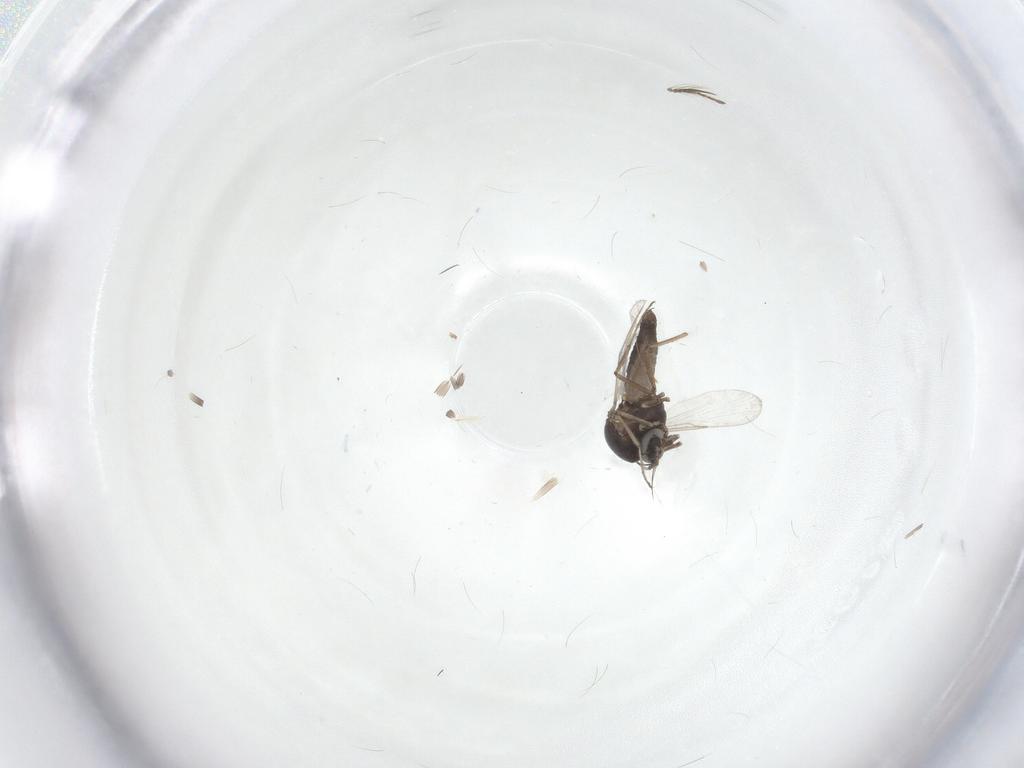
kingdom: Animalia
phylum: Arthropoda
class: Insecta
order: Diptera
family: Ceratopogonidae
